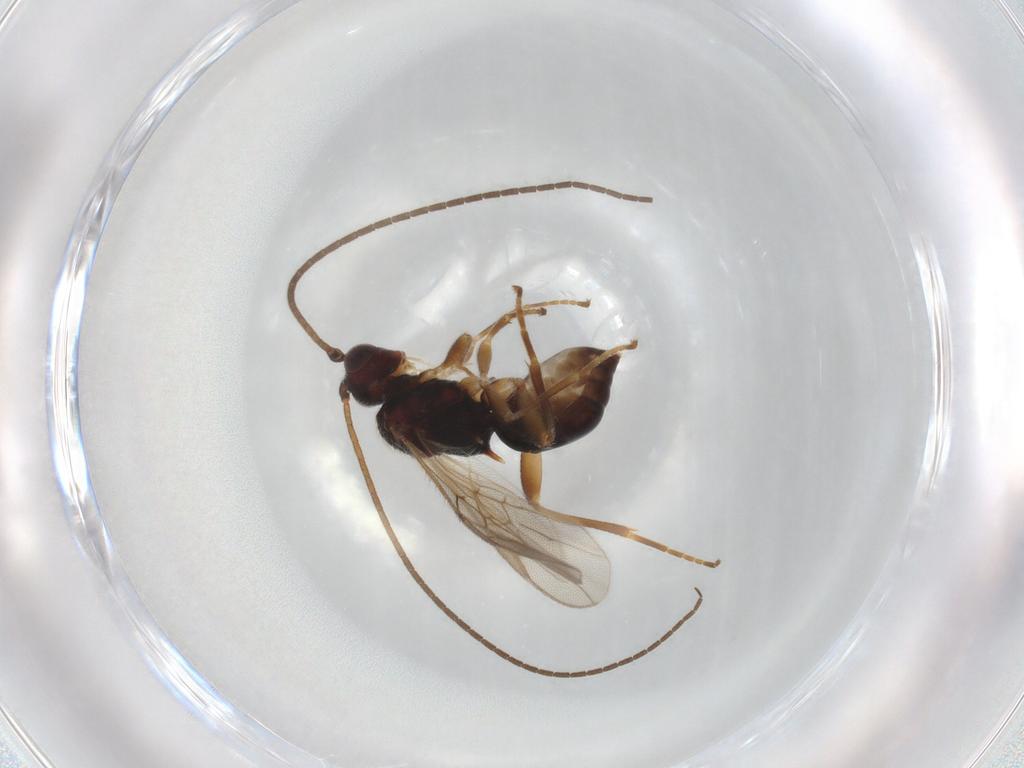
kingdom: Animalia
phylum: Arthropoda
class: Insecta
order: Hymenoptera
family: Braconidae
